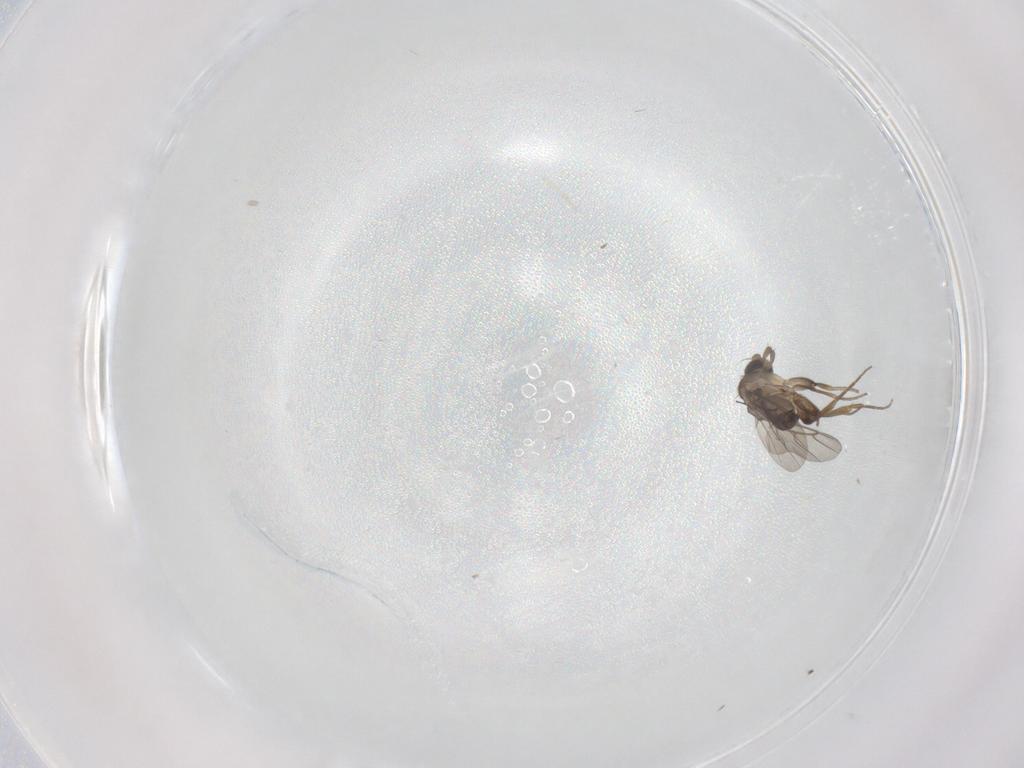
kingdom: Animalia
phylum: Arthropoda
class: Insecta
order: Diptera
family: Phoridae
